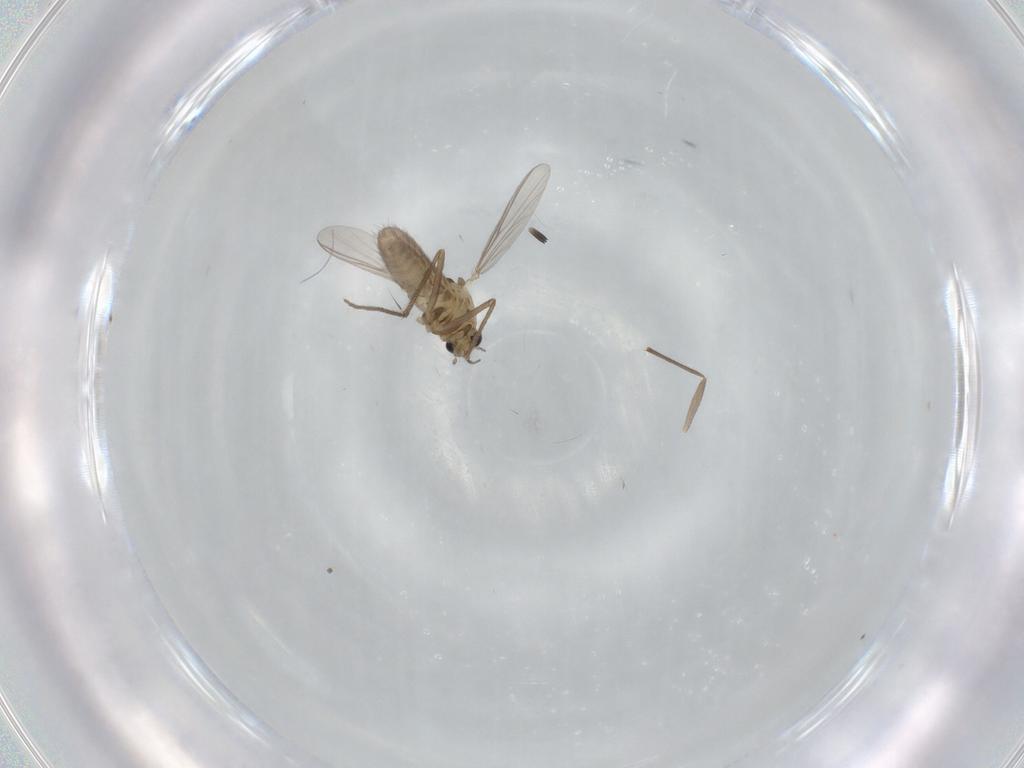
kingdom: Animalia
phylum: Arthropoda
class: Insecta
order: Diptera
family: Chironomidae
